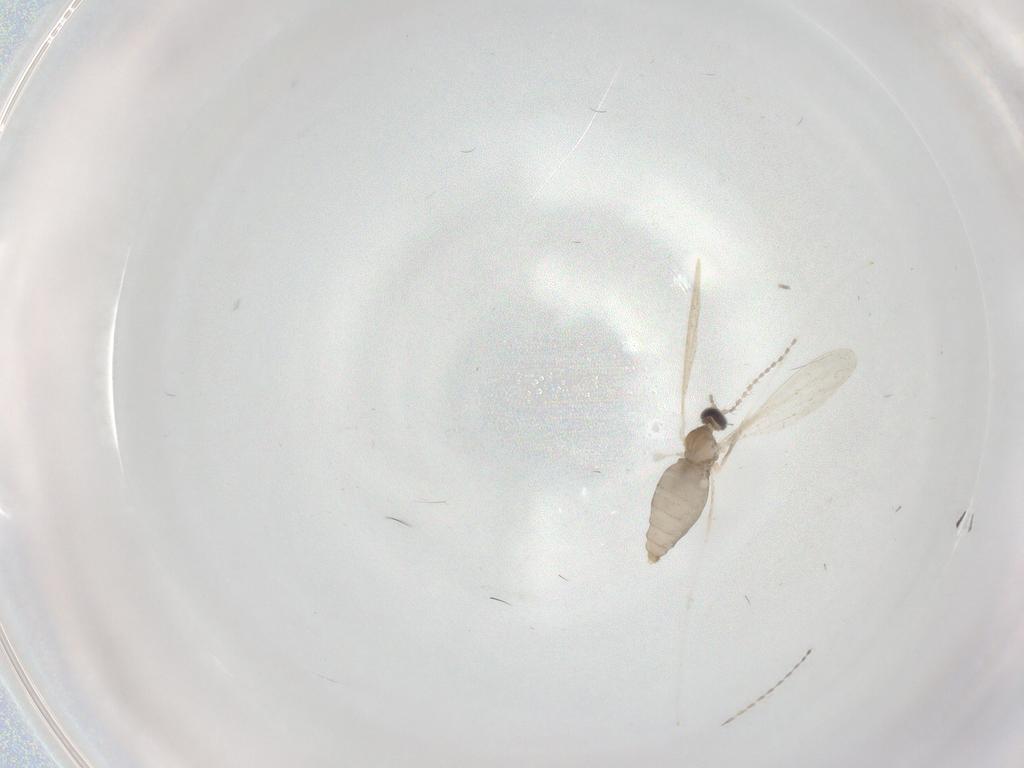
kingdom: Animalia
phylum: Arthropoda
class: Insecta
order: Diptera
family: Cecidomyiidae
